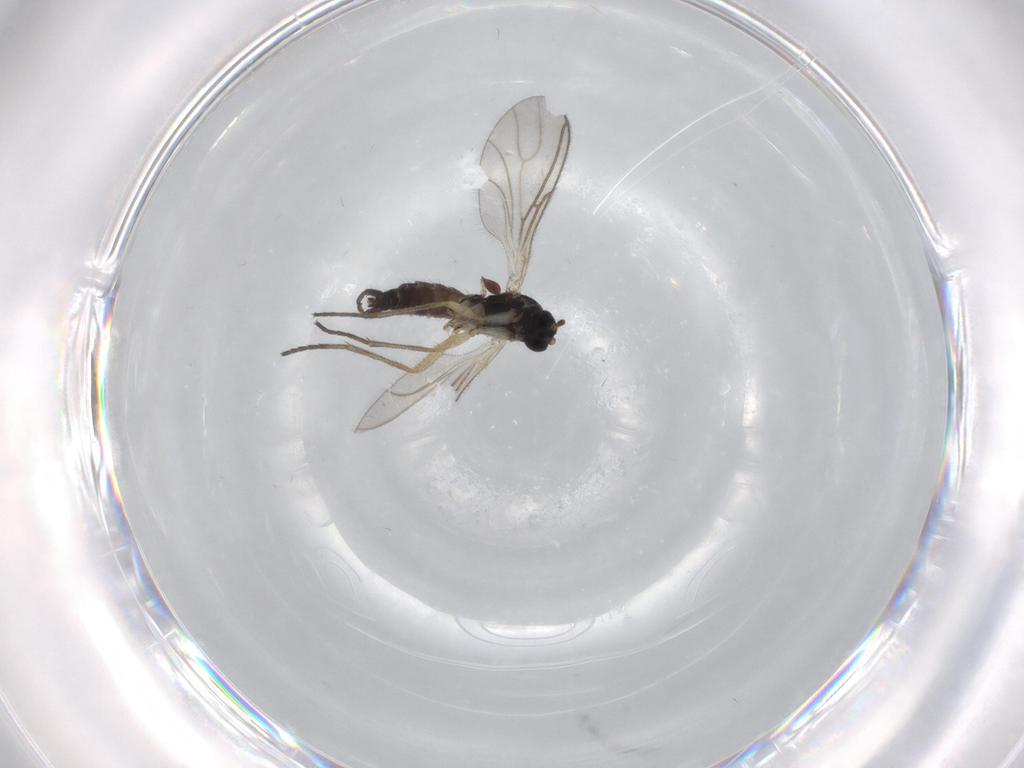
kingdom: Animalia
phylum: Arthropoda
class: Insecta
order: Diptera
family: Sciaridae
